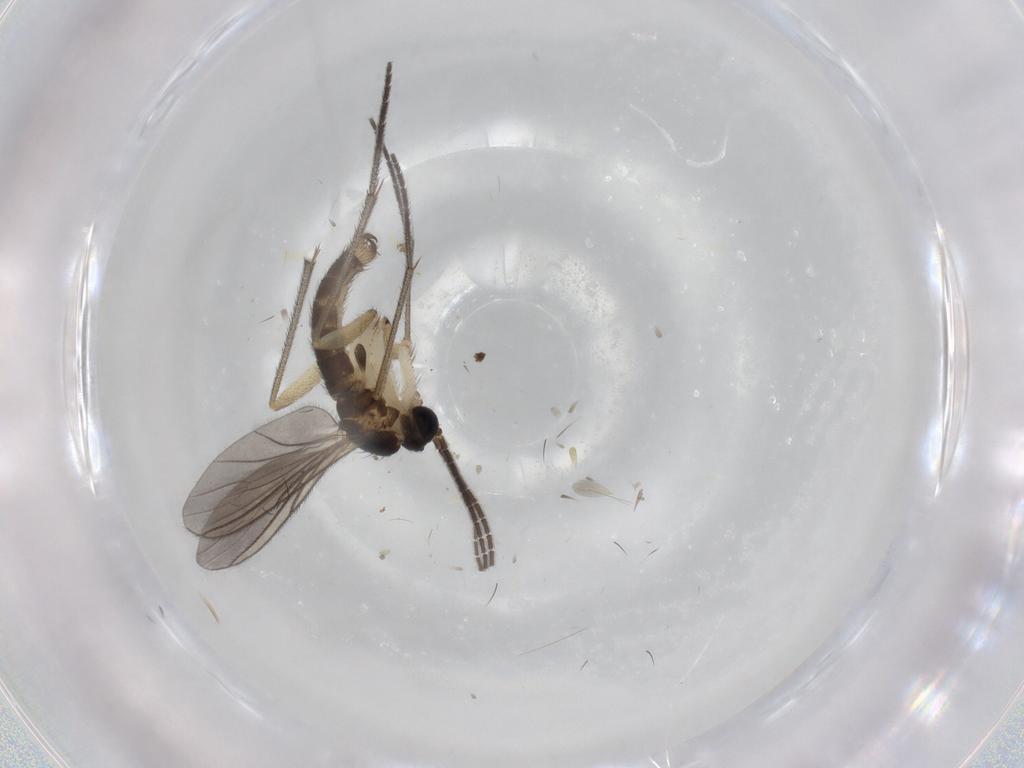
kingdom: Animalia
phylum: Arthropoda
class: Insecta
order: Diptera
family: Sciaridae
